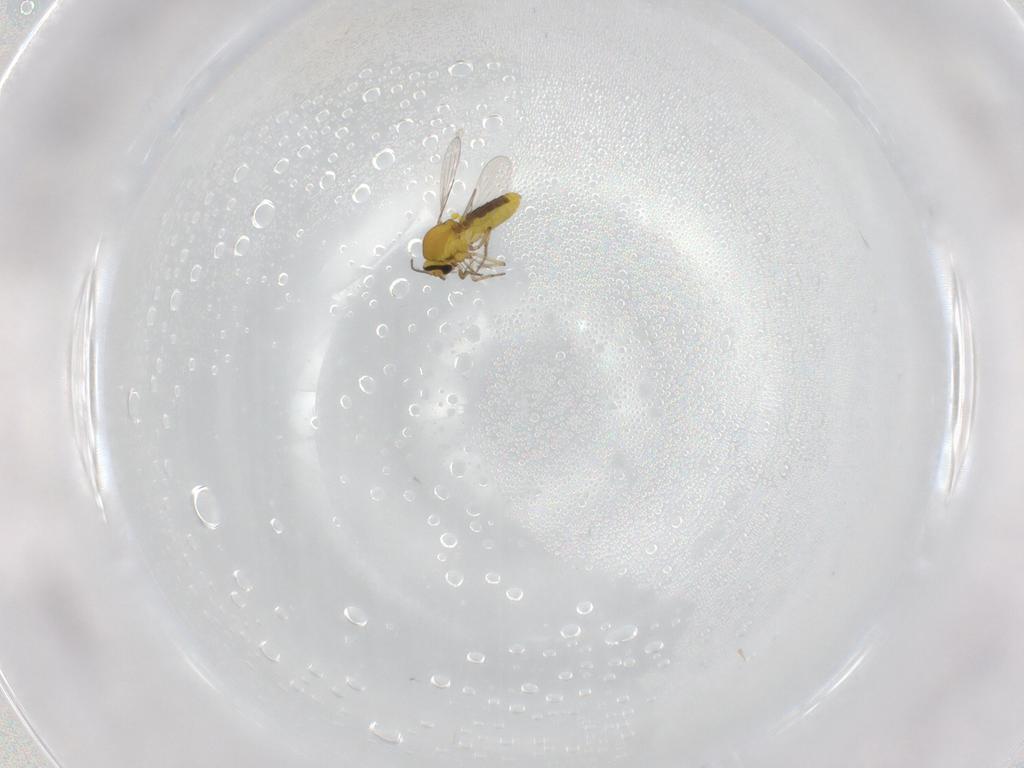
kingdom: Animalia
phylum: Arthropoda
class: Insecta
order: Diptera
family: Ceratopogonidae
